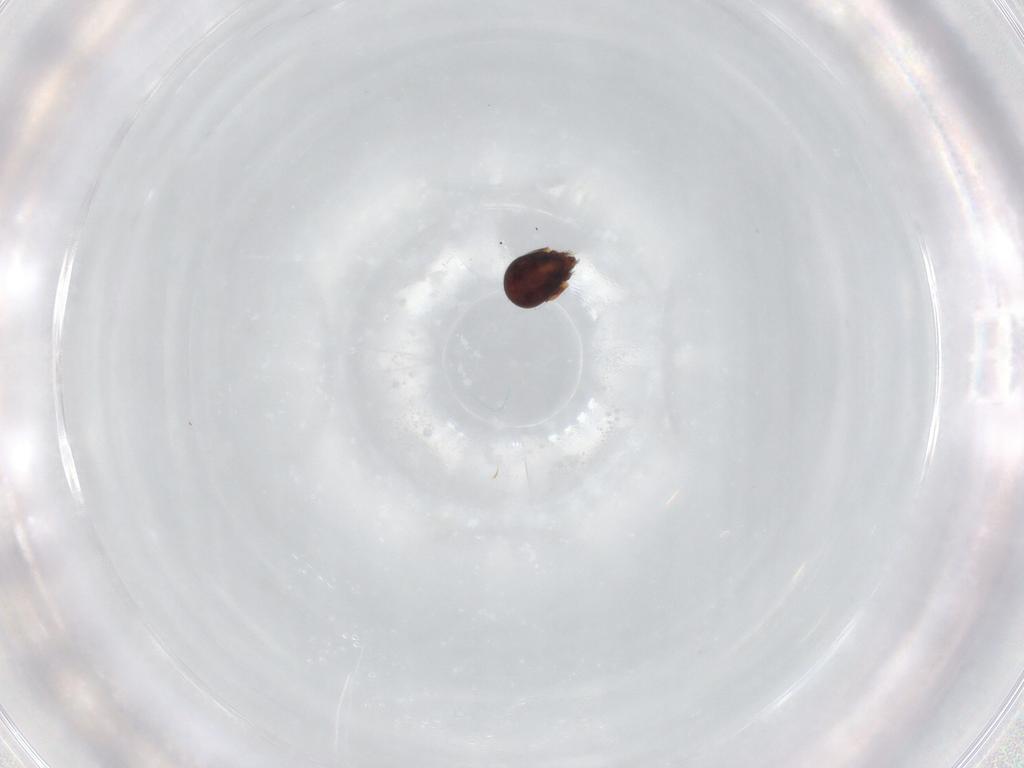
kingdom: Animalia
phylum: Arthropoda
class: Arachnida
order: Sarcoptiformes
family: Ceratozetidae
